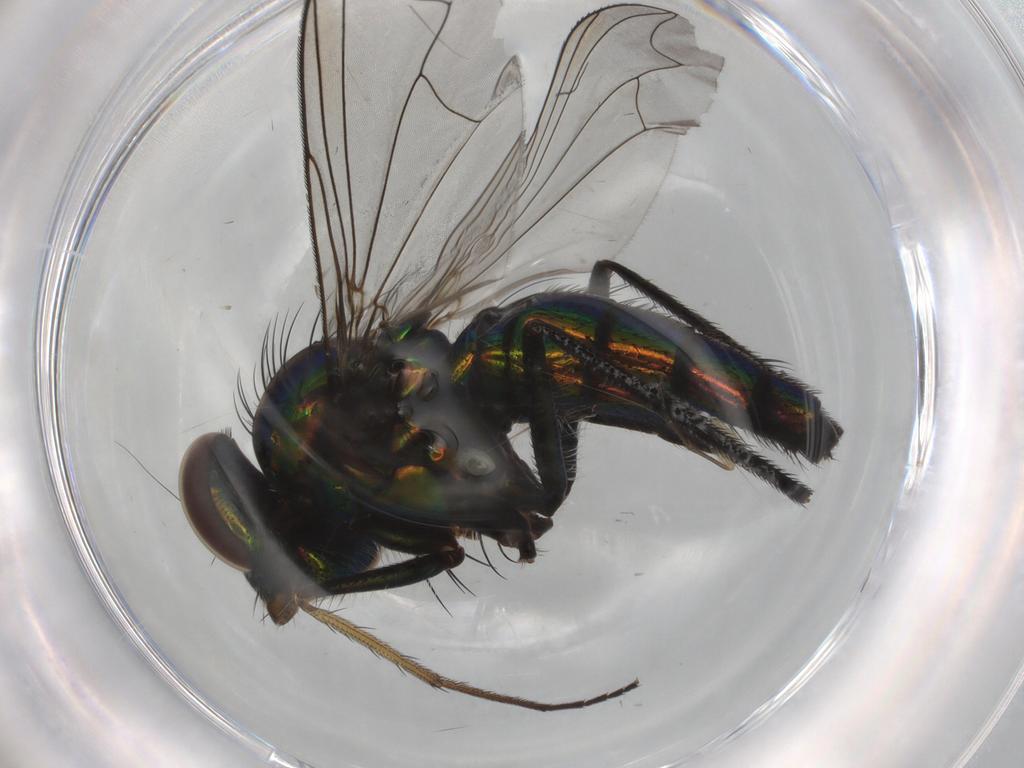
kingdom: Animalia
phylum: Arthropoda
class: Insecta
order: Diptera
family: Dolichopodidae
